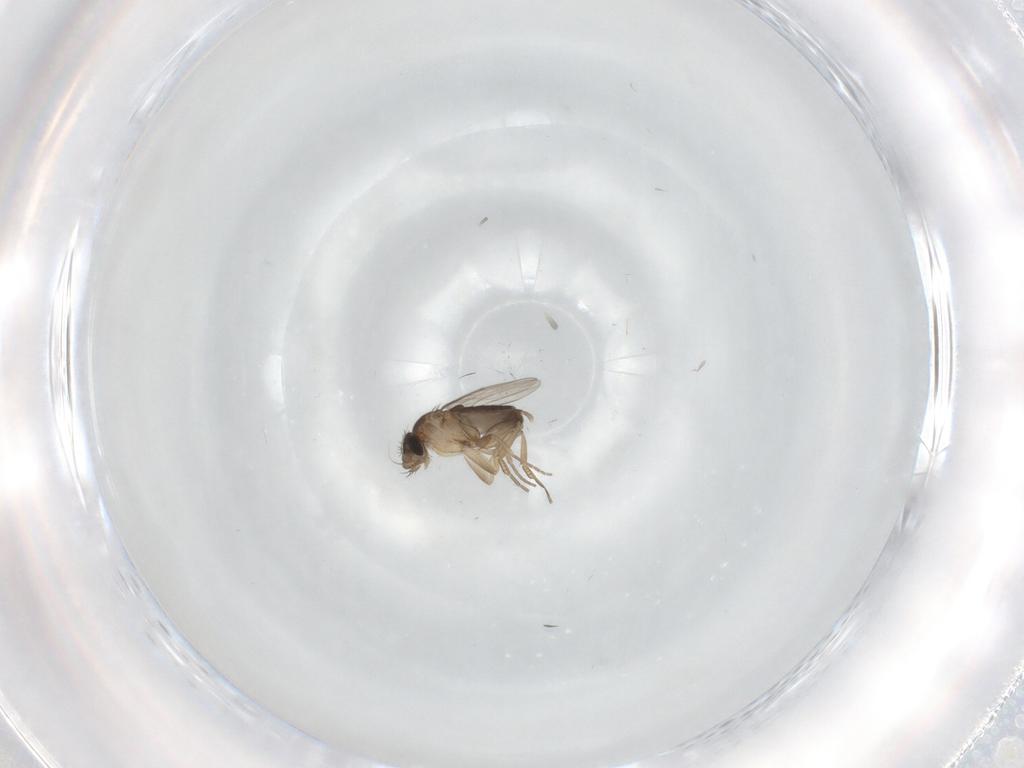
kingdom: Animalia
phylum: Arthropoda
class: Insecta
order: Diptera
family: Phoridae
